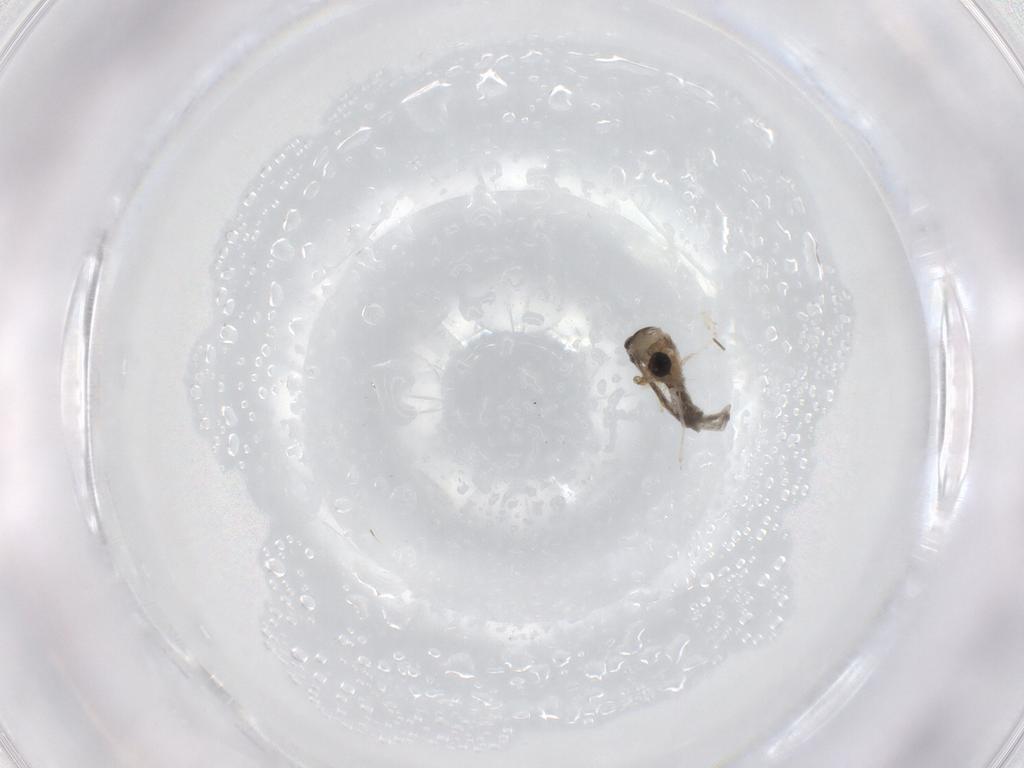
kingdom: Animalia
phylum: Arthropoda
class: Insecta
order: Diptera
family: Cecidomyiidae
